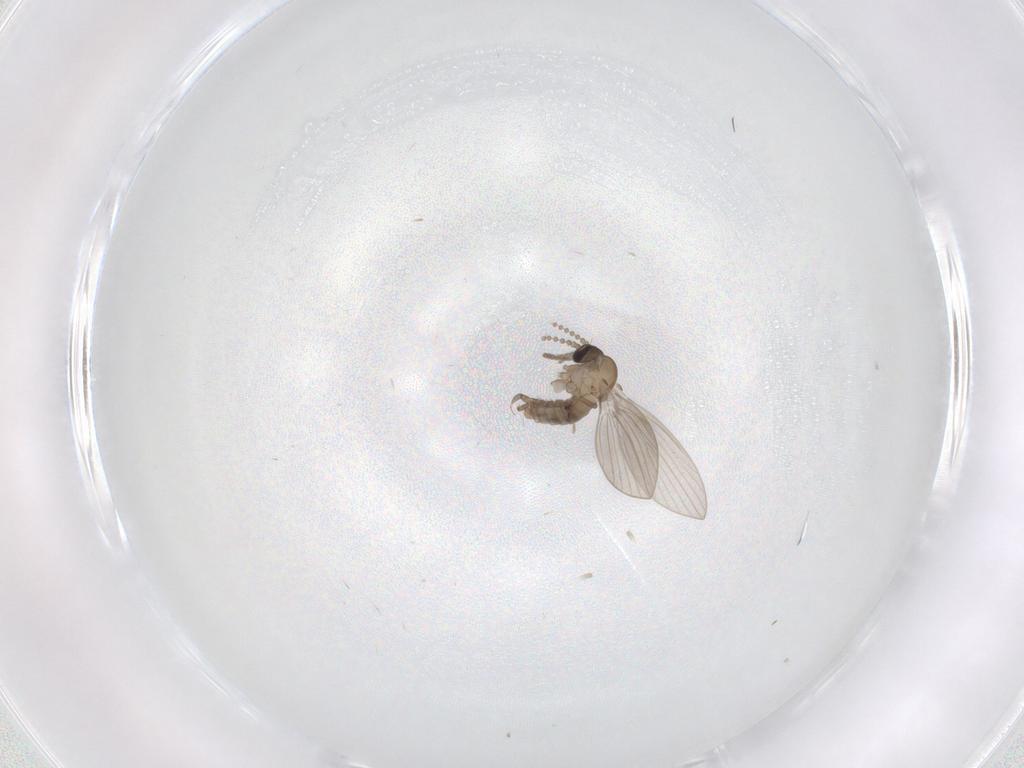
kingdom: Animalia
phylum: Arthropoda
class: Insecta
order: Diptera
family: Psychodidae
